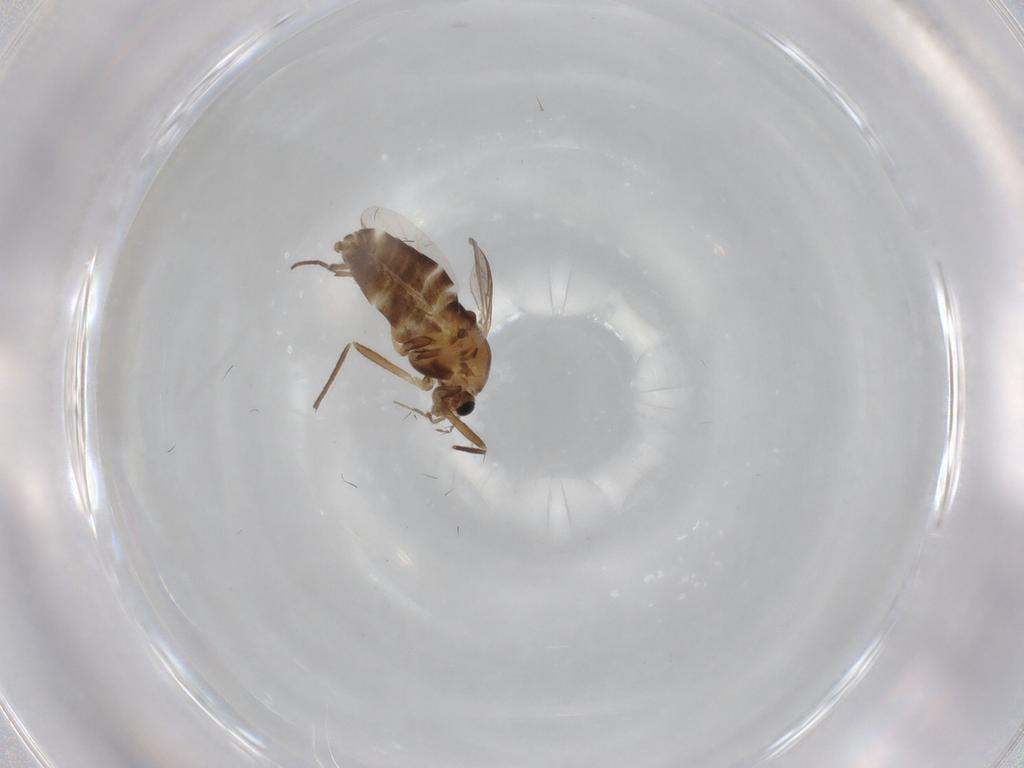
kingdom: Animalia
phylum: Arthropoda
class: Insecta
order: Diptera
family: Chironomidae
